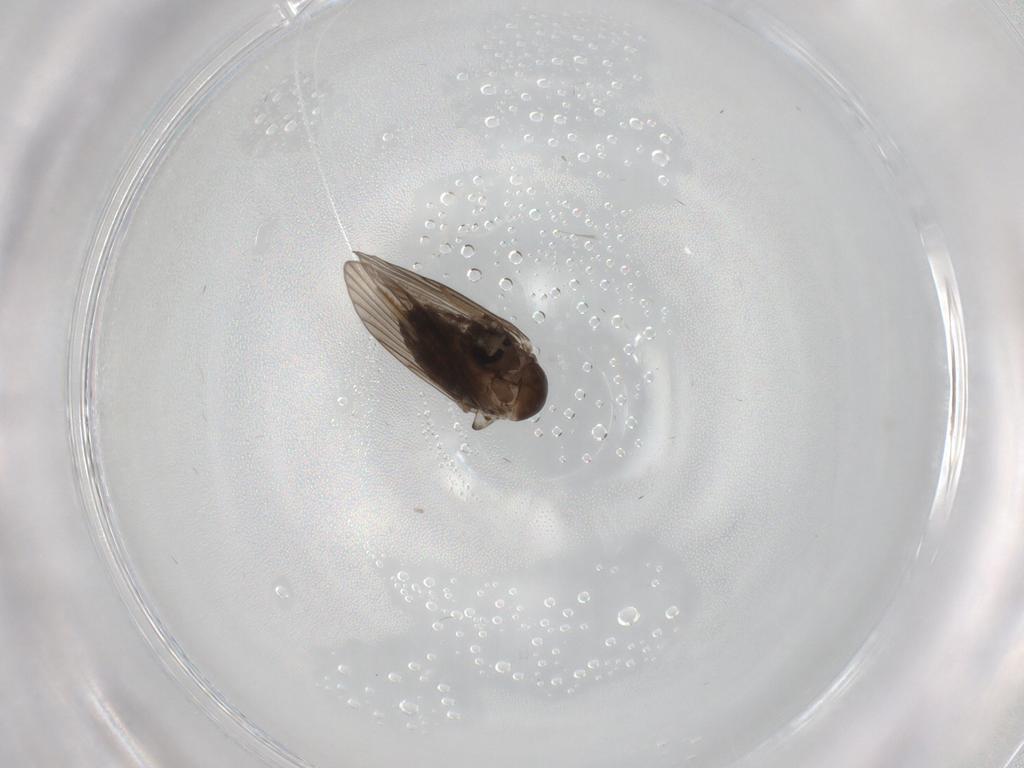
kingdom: Animalia
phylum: Arthropoda
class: Insecta
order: Diptera
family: Psychodidae
